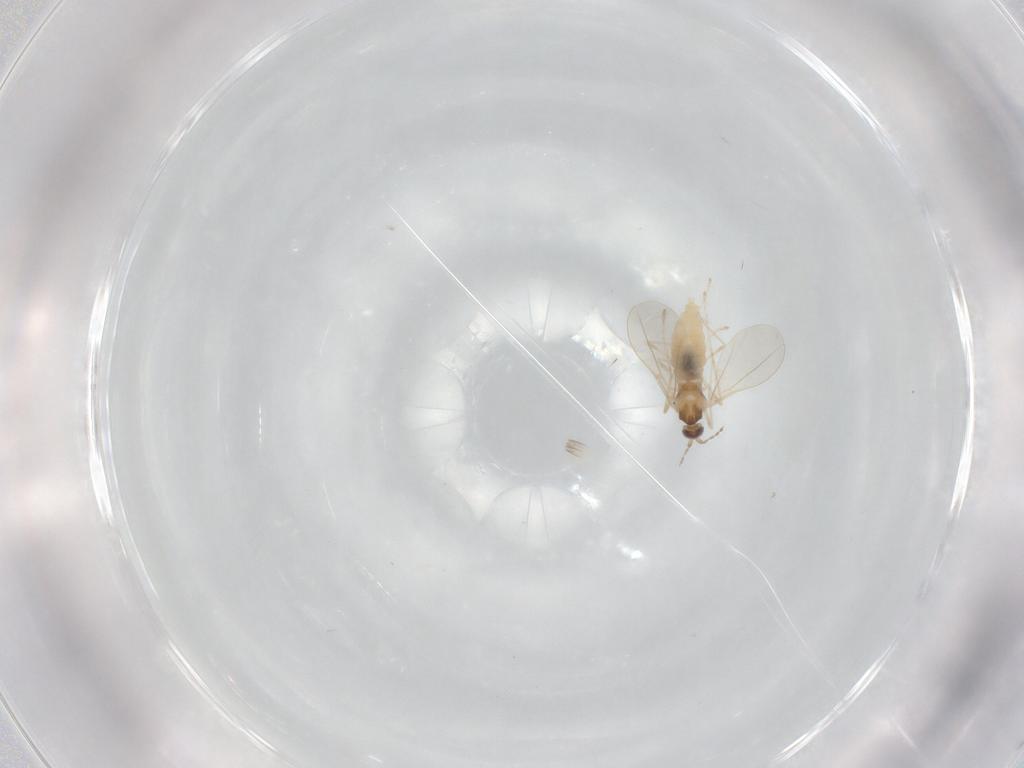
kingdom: Animalia
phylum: Arthropoda
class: Insecta
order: Diptera
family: Cecidomyiidae
